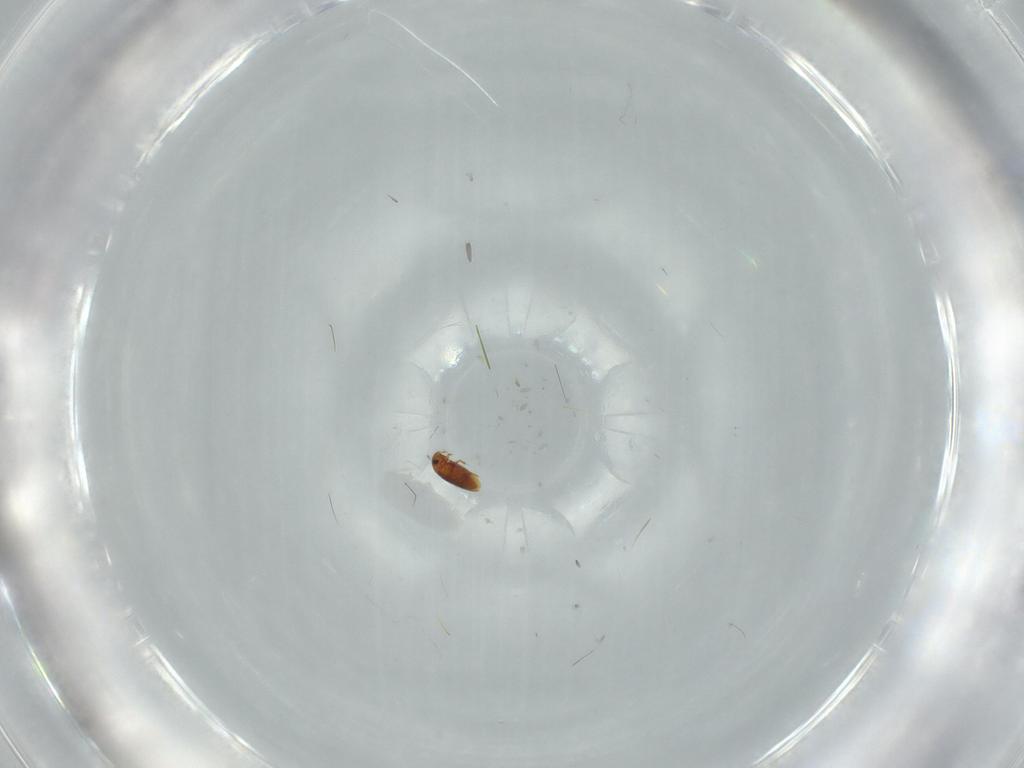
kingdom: Animalia
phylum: Arthropoda
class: Insecta
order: Coleoptera
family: Ptiliidae
